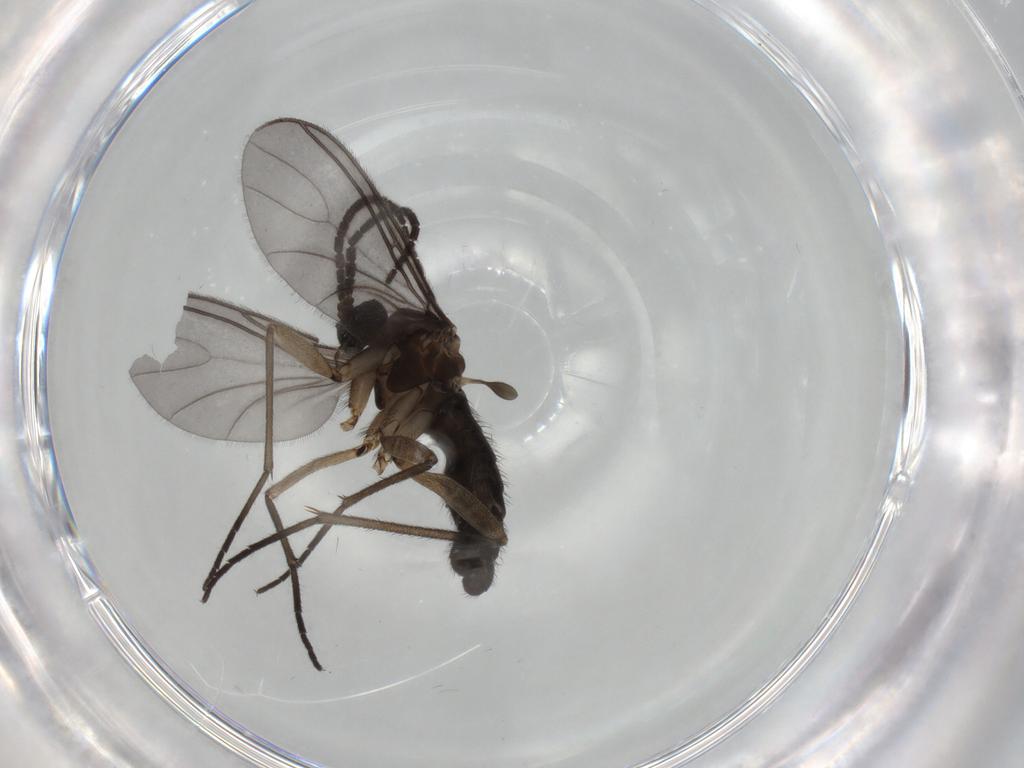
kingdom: Animalia
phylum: Arthropoda
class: Insecta
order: Diptera
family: Sciaridae
